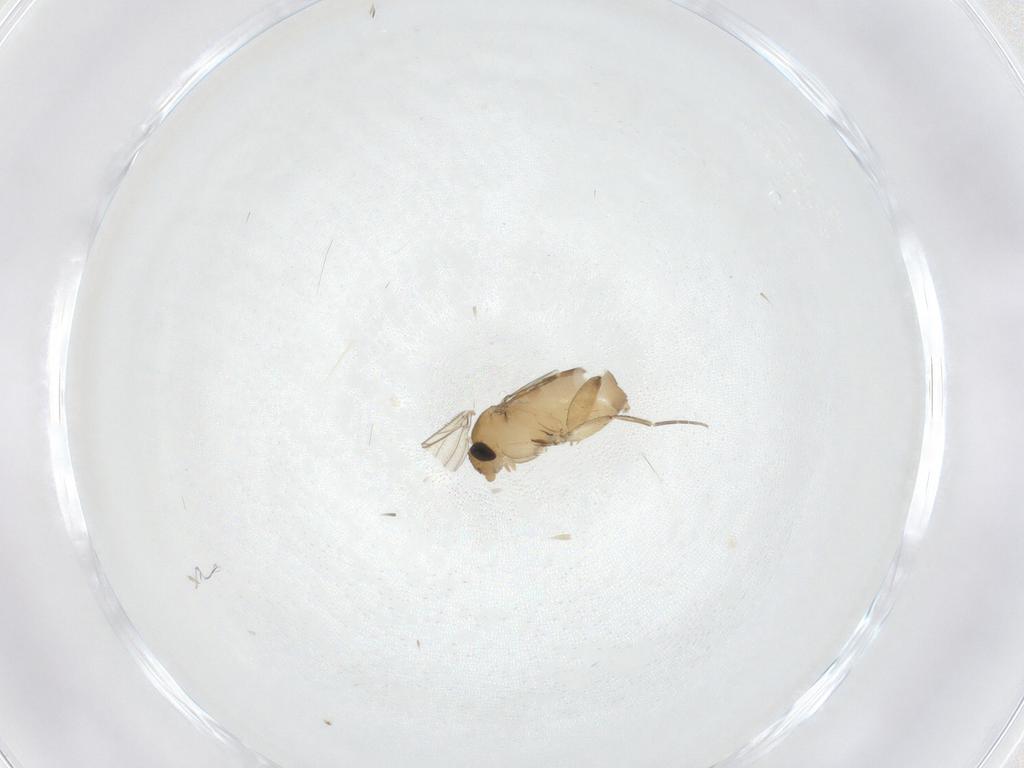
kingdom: Animalia
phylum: Arthropoda
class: Insecta
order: Diptera
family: Phoridae
